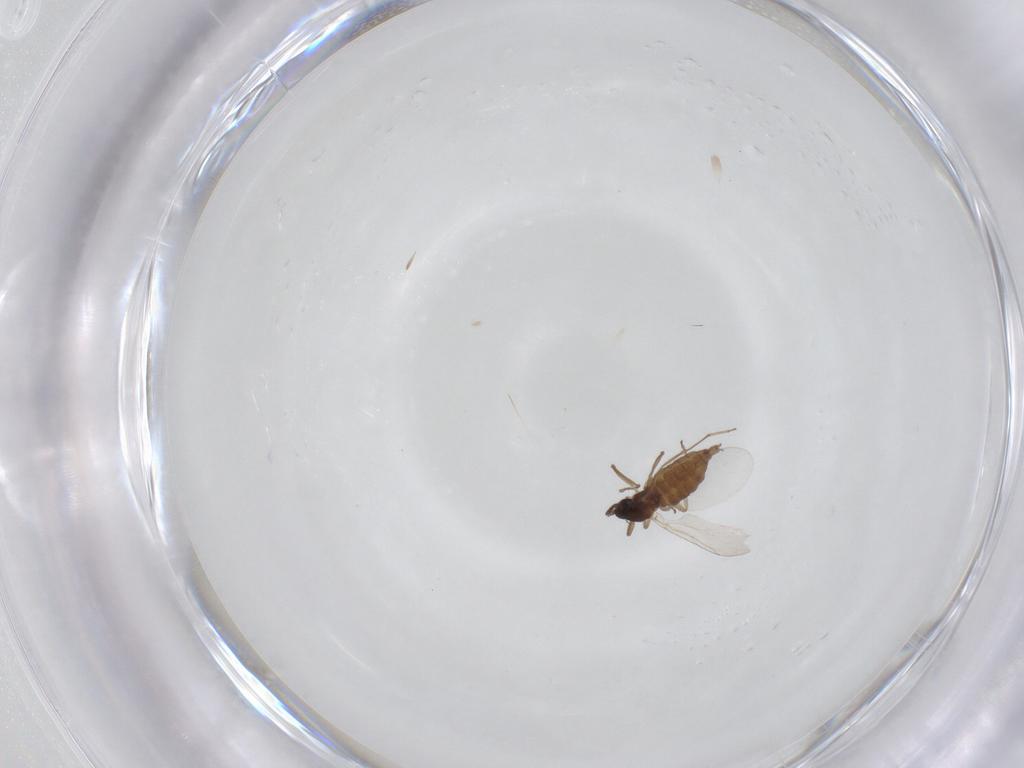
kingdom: Animalia
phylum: Arthropoda
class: Insecta
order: Diptera
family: Cecidomyiidae
